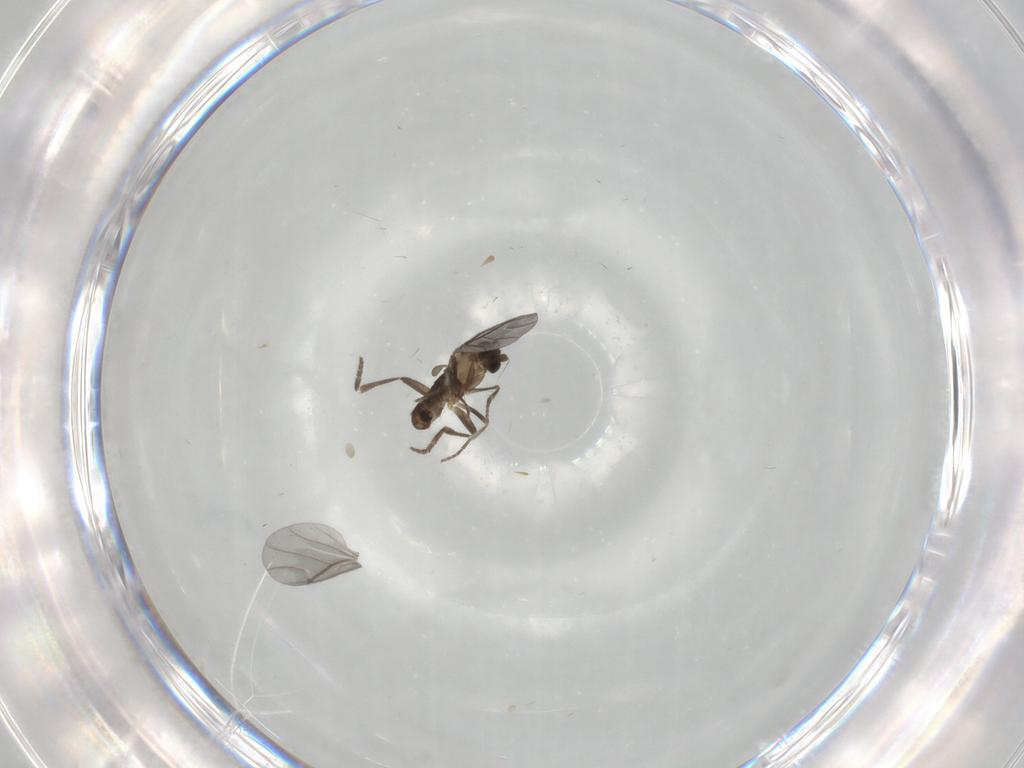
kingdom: Animalia
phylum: Arthropoda
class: Insecta
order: Diptera
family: Phoridae
